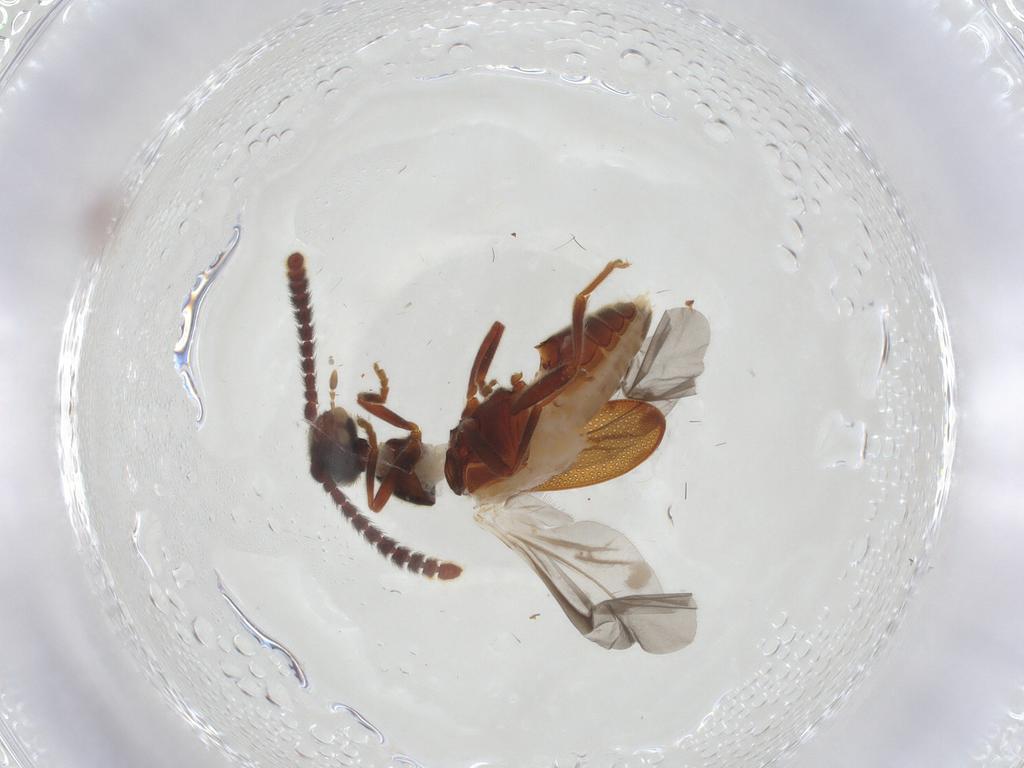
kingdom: Animalia
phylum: Arthropoda
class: Insecta
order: Coleoptera
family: Aderidae
